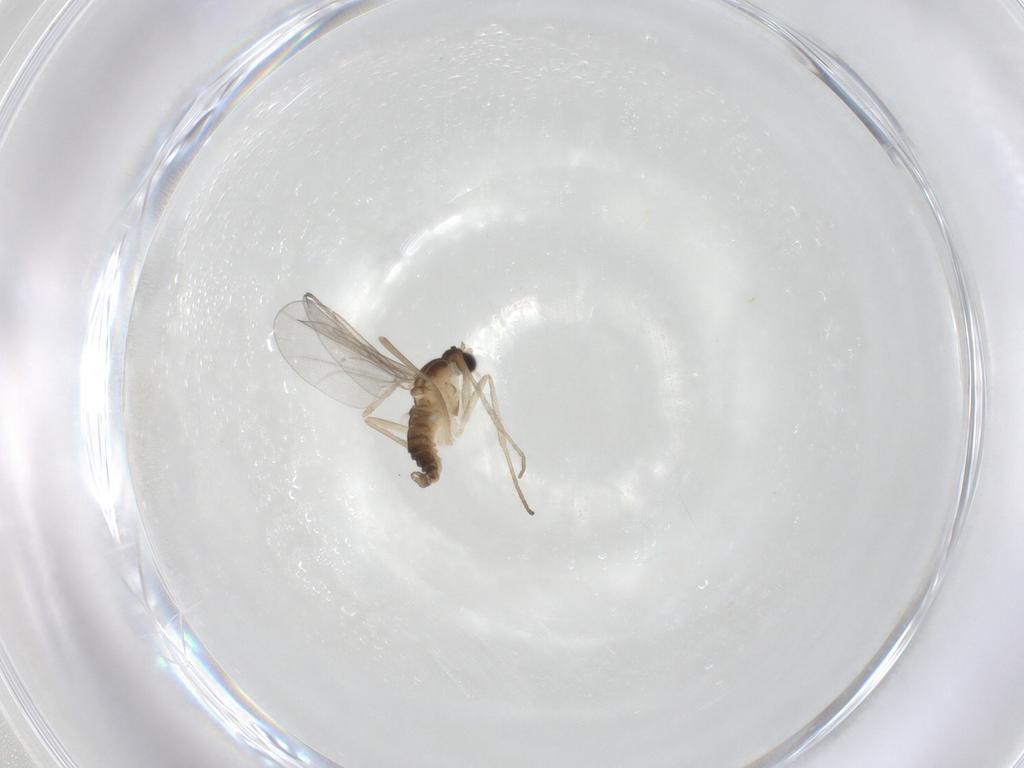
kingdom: Animalia
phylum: Arthropoda
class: Insecta
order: Diptera
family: Cecidomyiidae
